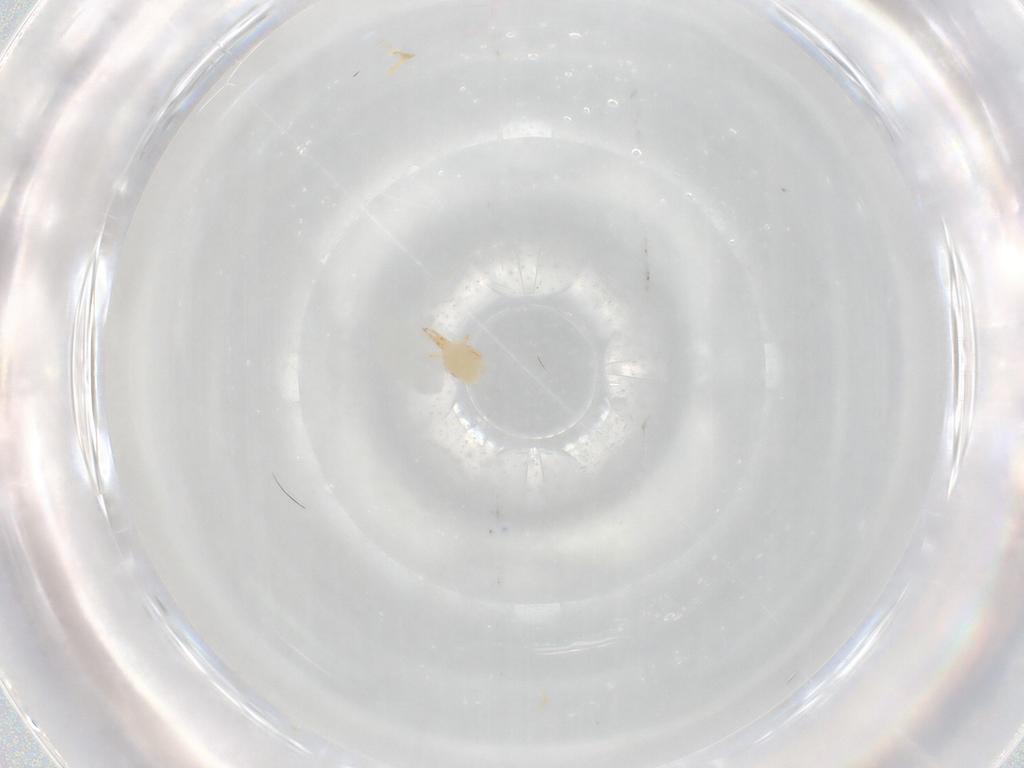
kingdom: Animalia
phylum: Arthropoda
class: Arachnida
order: Trombidiformes
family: Cunaxidae
